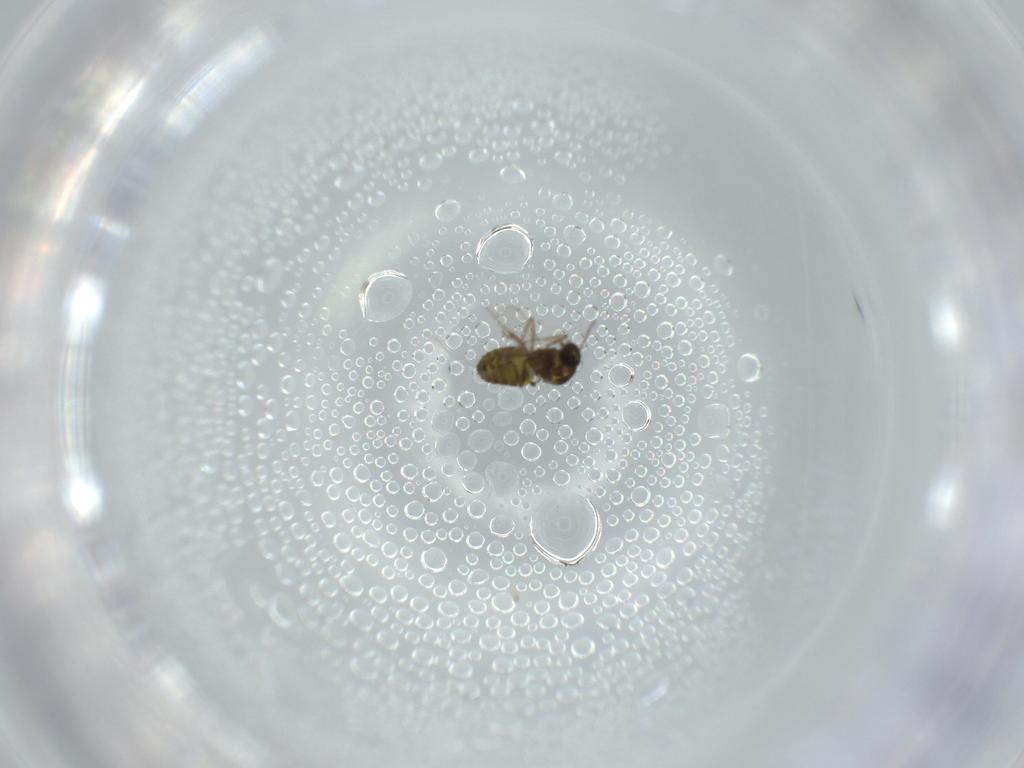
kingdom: Animalia
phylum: Arthropoda
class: Insecta
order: Diptera
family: Ceratopogonidae
